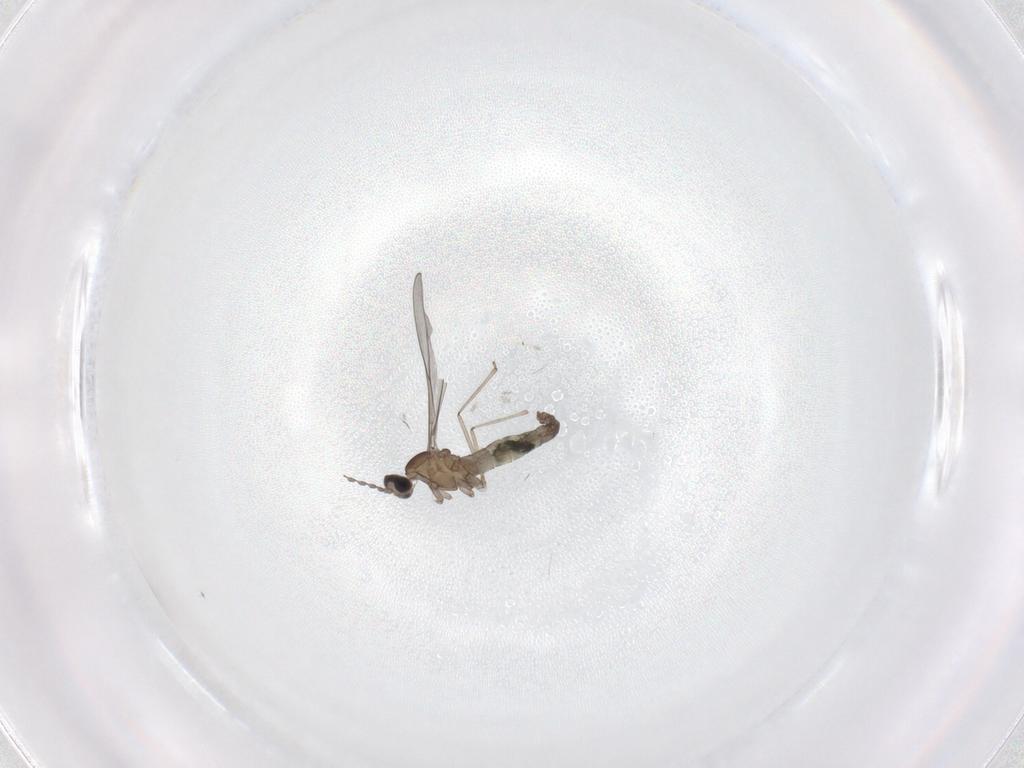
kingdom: Animalia
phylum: Arthropoda
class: Insecta
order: Diptera
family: Cecidomyiidae
